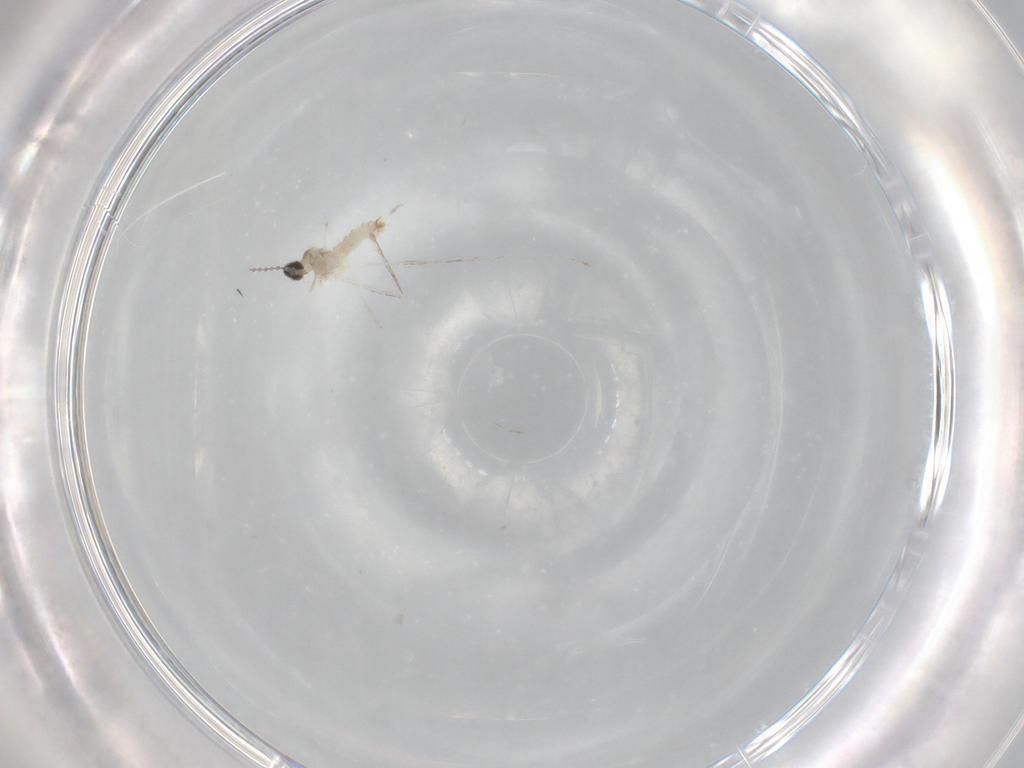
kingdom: Animalia
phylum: Arthropoda
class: Insecta
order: Diptera
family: Cecidomyiidae
